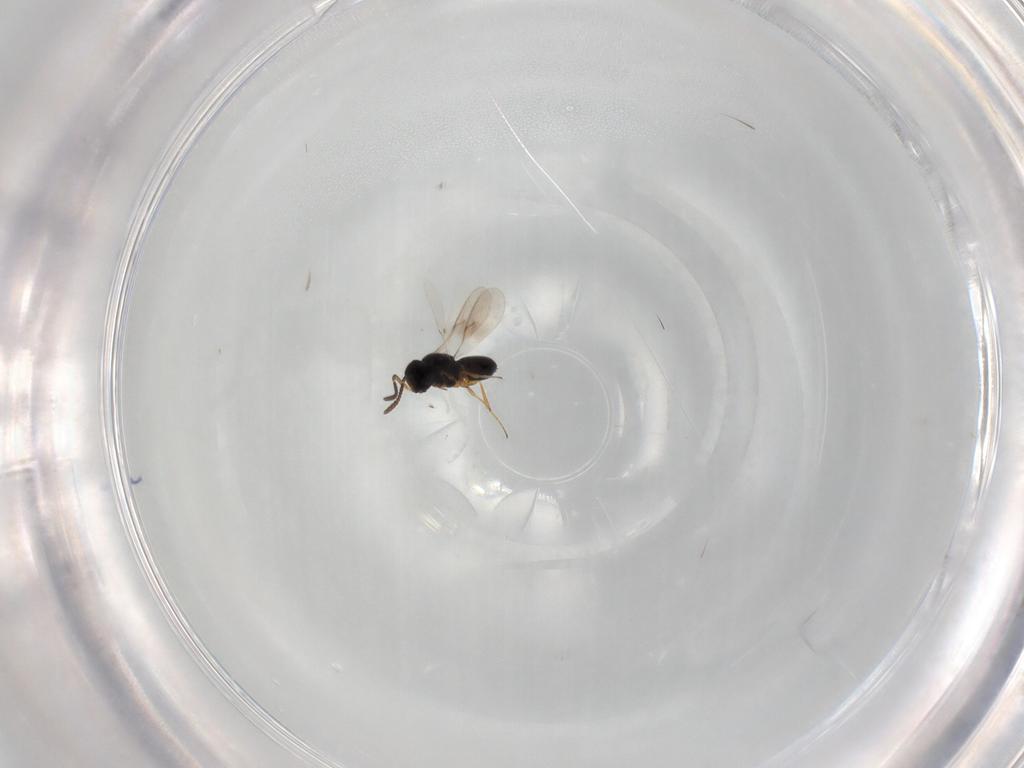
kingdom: Animalia
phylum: Arthropoda
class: Insecta
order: Hymenoptera
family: Scelionidae
